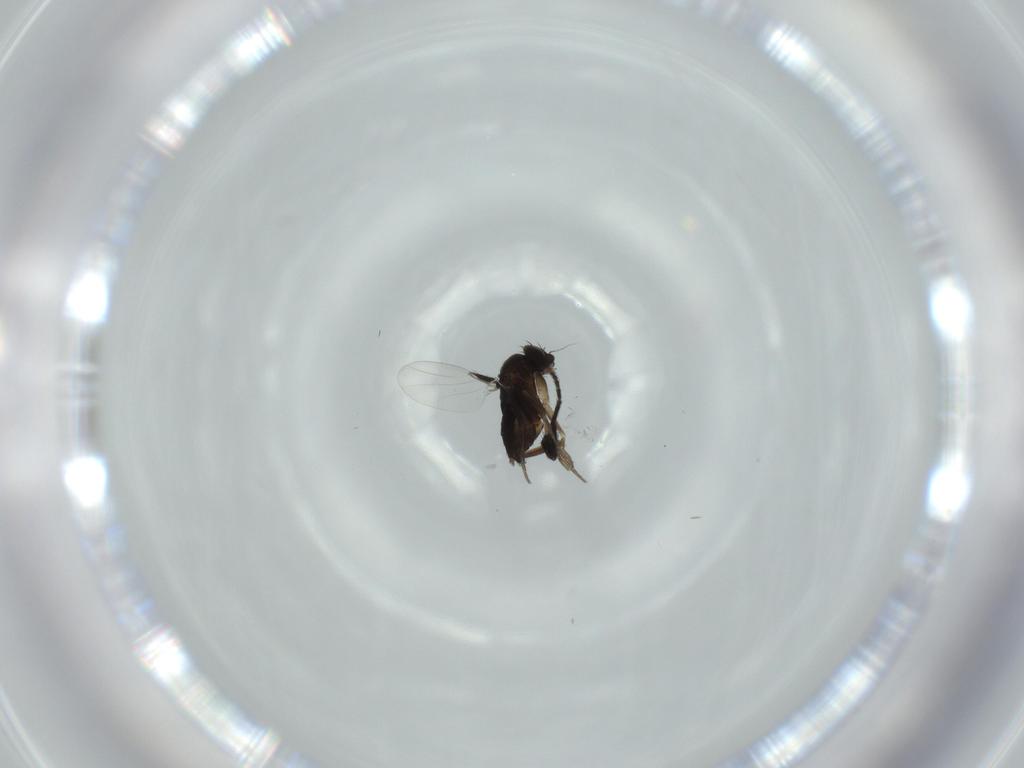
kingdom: Animalia
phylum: Arthropoda
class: Insecta
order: Diptera
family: Phoridae
